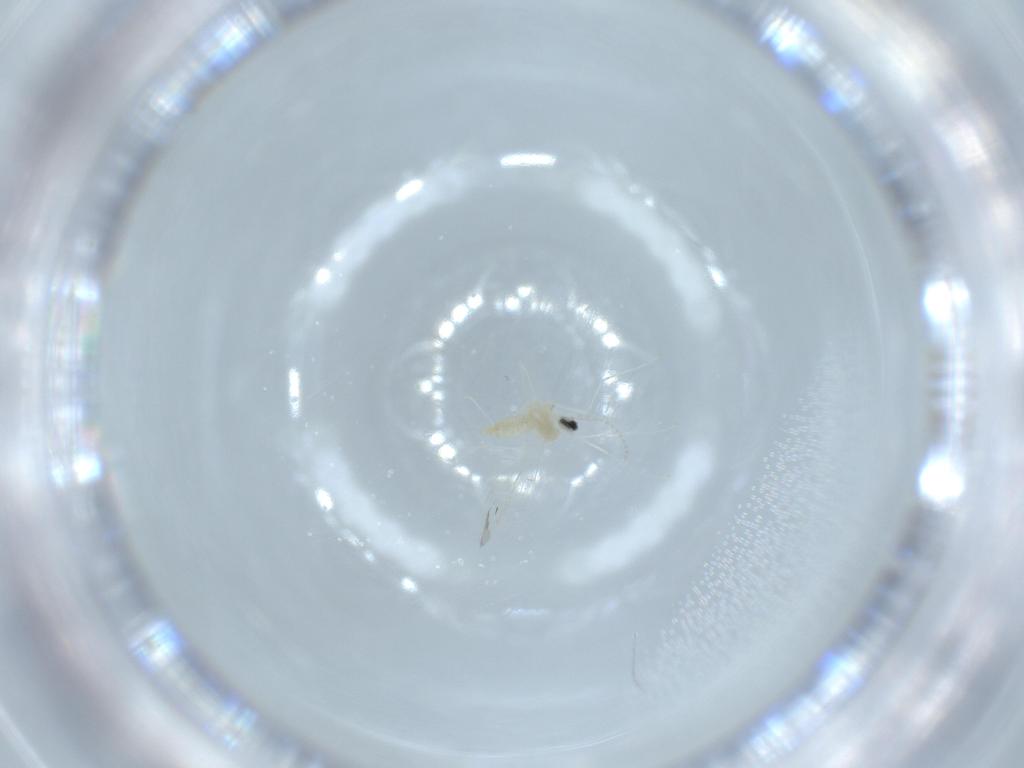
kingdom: Animalia
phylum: Arthropoda
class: Insecta
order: Diptera
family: Cecidomyiidae
